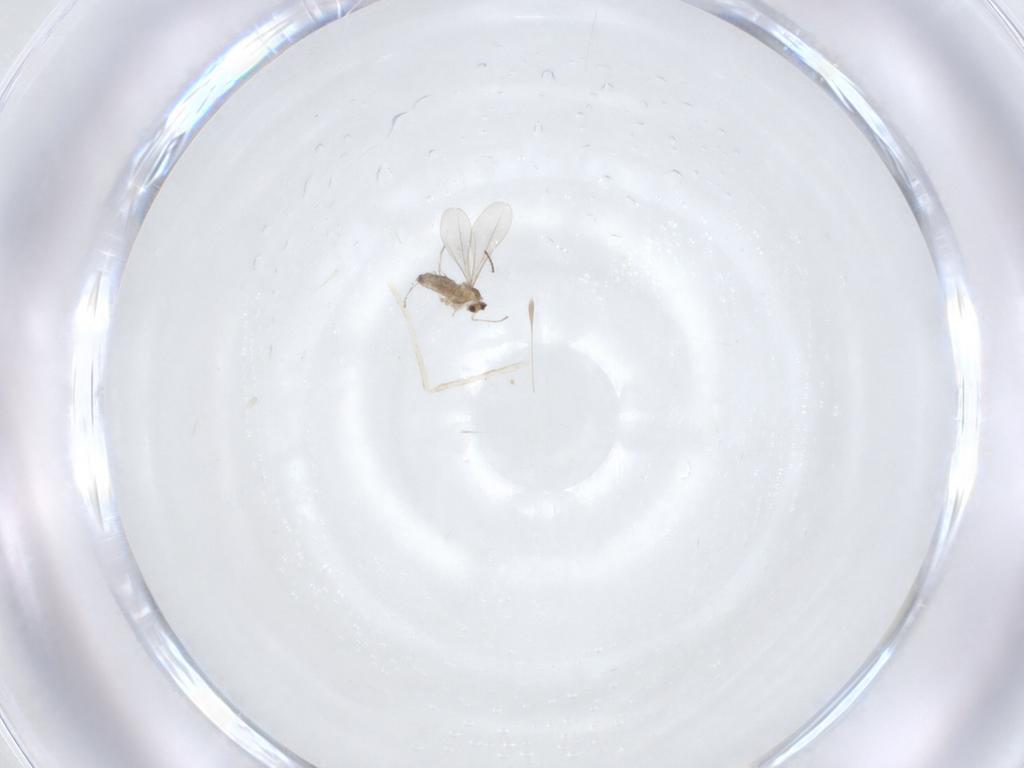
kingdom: Animalia
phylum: Arthropoda
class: Insecta
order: Diptera
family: Cecidomyiidae
